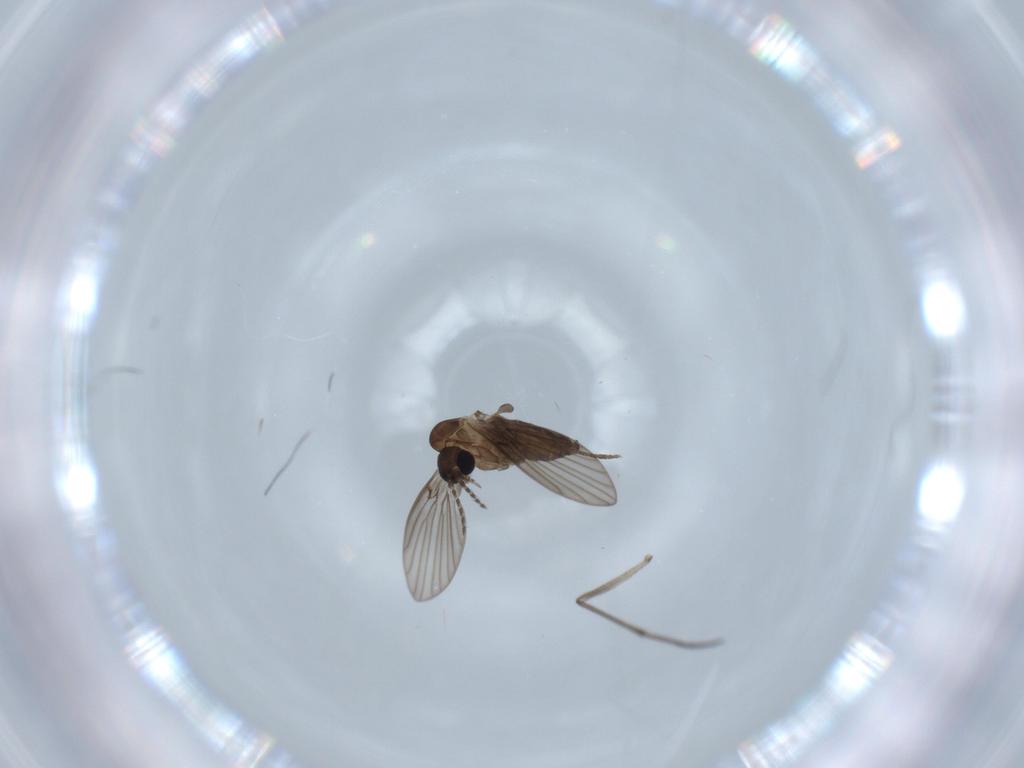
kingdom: Animalia
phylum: Arthropoda
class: Insecta
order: Diptera
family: Psychodidae
